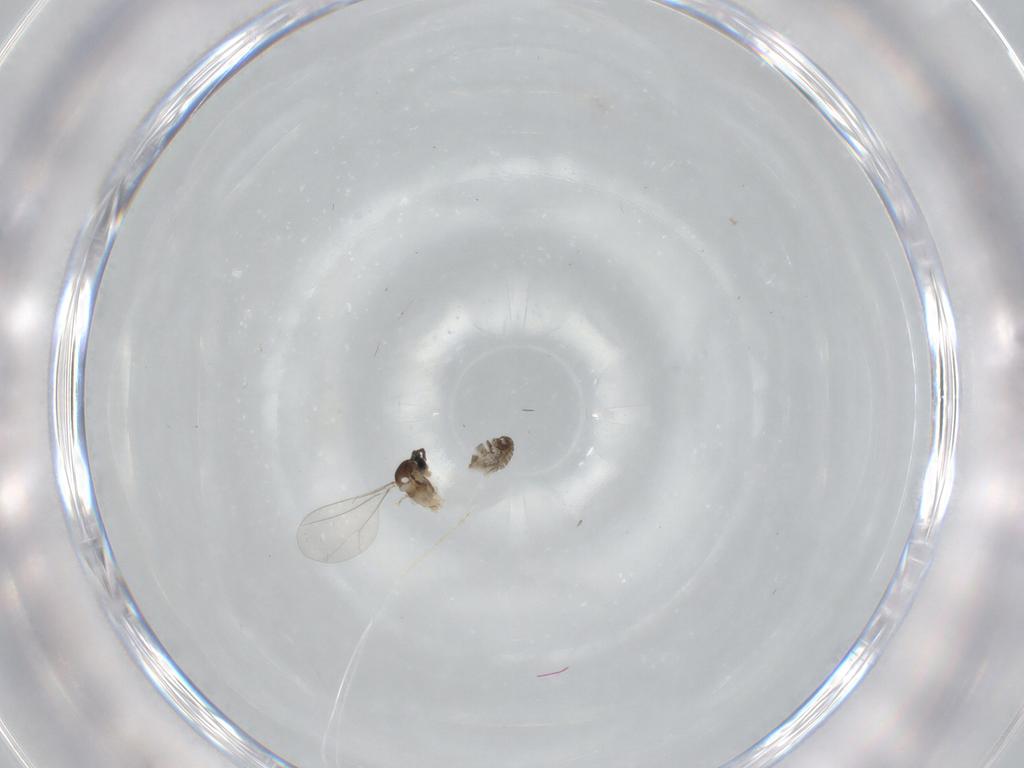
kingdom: Animalia
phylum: Arthropoda
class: Insecta
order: Diptera
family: Cecidomyiidae
